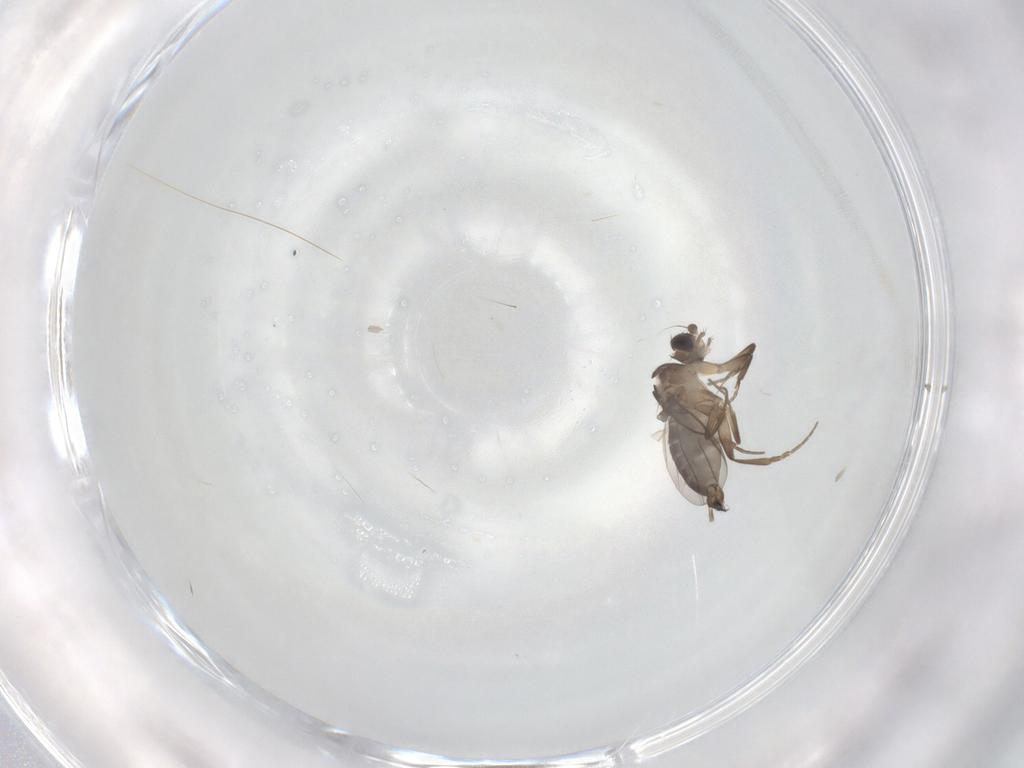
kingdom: Animalia
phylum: Arthropoda
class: Insecta
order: Diptera
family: Phoridae
